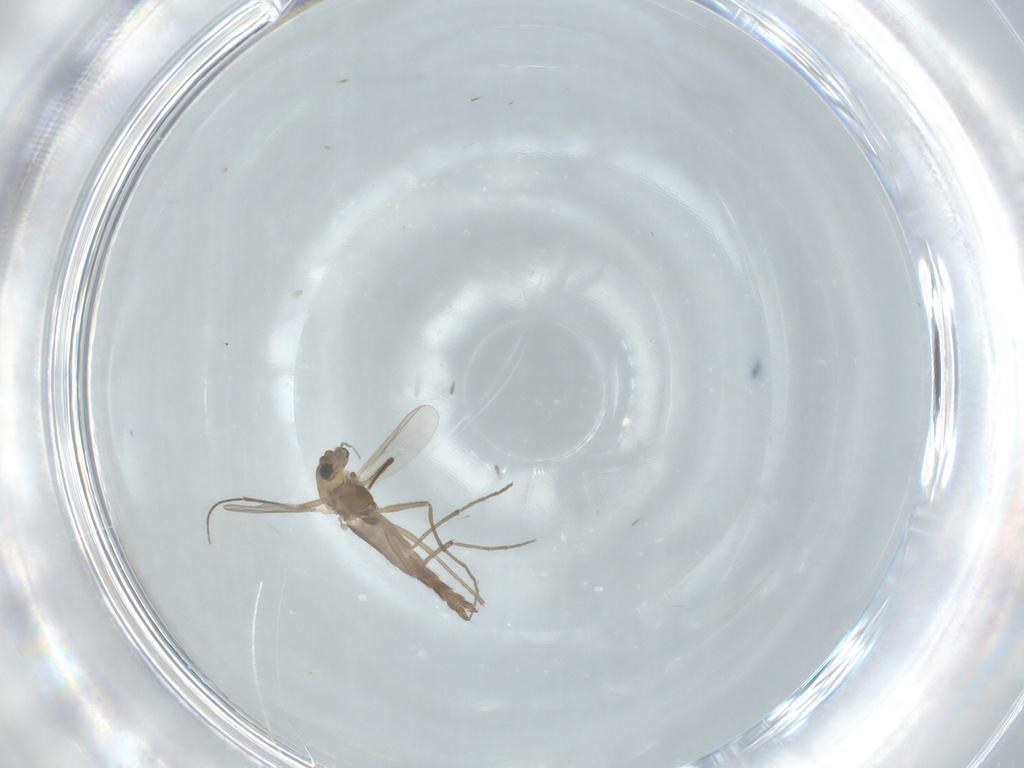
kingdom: Animalia
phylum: Arthropoda
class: Insecta
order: Diptera
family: Chironomidae
